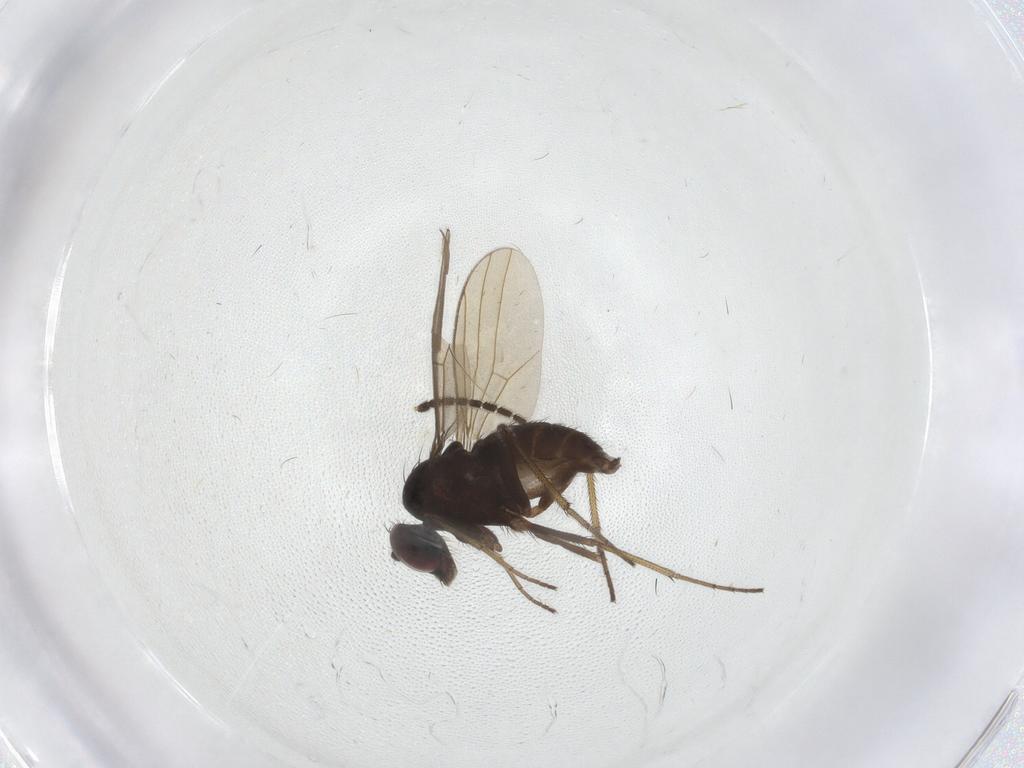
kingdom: Animalia
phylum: Arthropoda
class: Insecta
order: Diptera
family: Dolichopodidae
